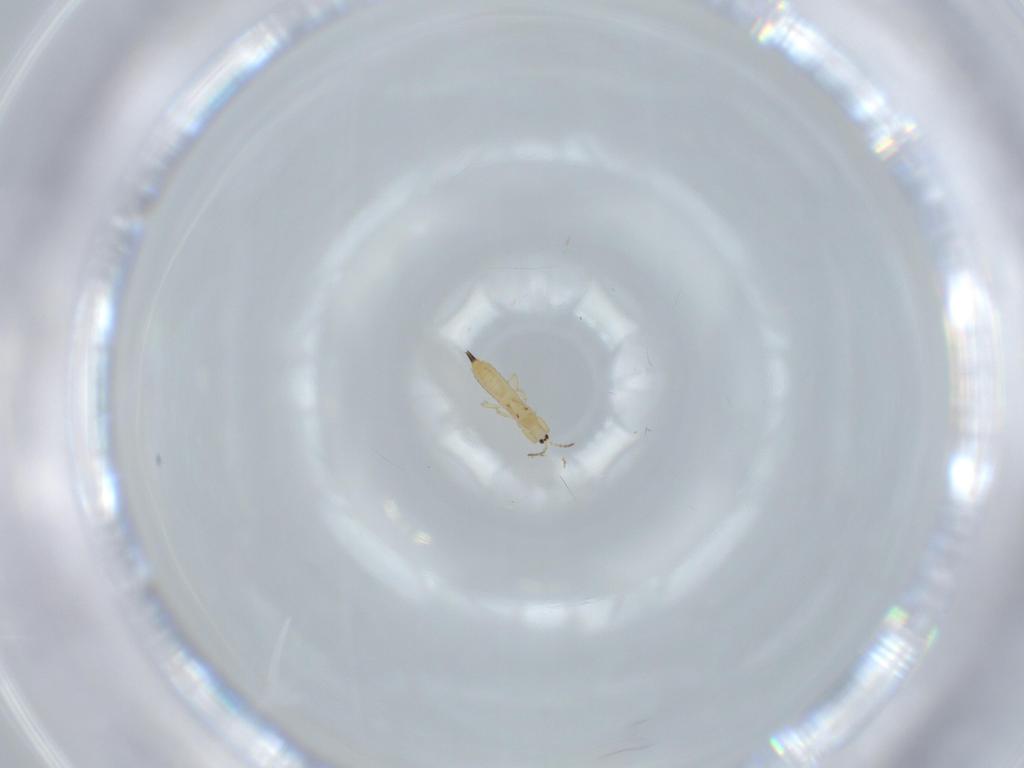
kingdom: Animalia
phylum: Arthropoda
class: Insecta
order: Thysanoptera
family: Phlaeothripidae
